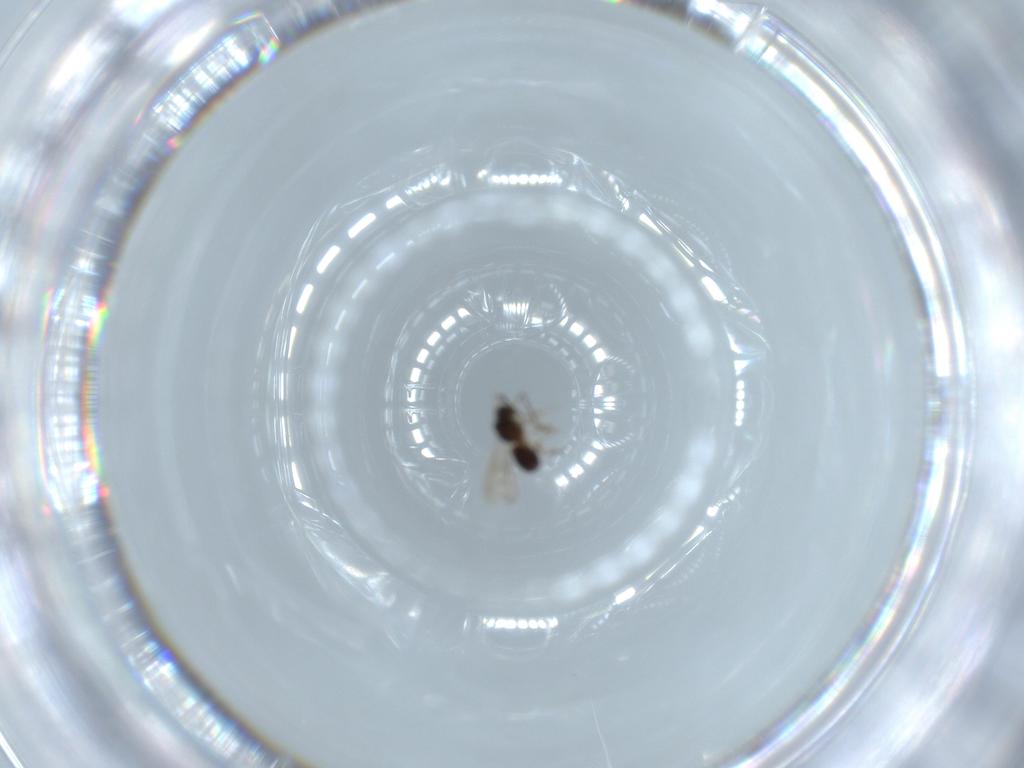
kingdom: Animalia
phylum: Arthropoda
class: Insecta
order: Hymenoptera
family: Scelionidae
